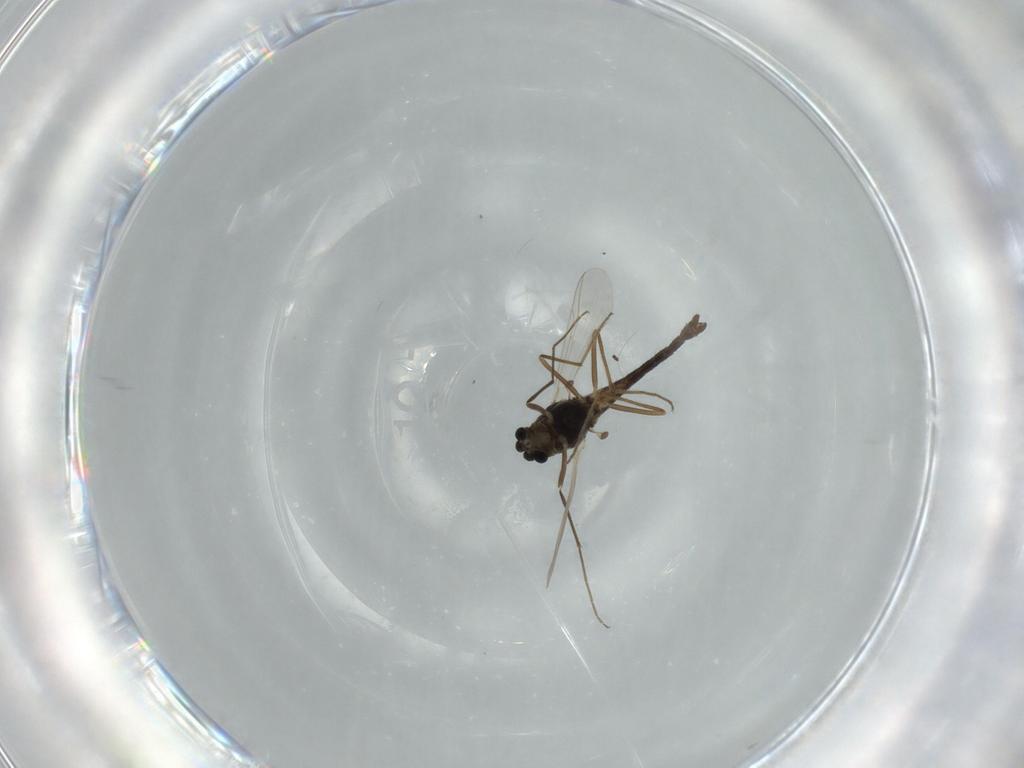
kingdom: Animalia
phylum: Arthropoda
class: Insecta
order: Diptera
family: Chironomidae
